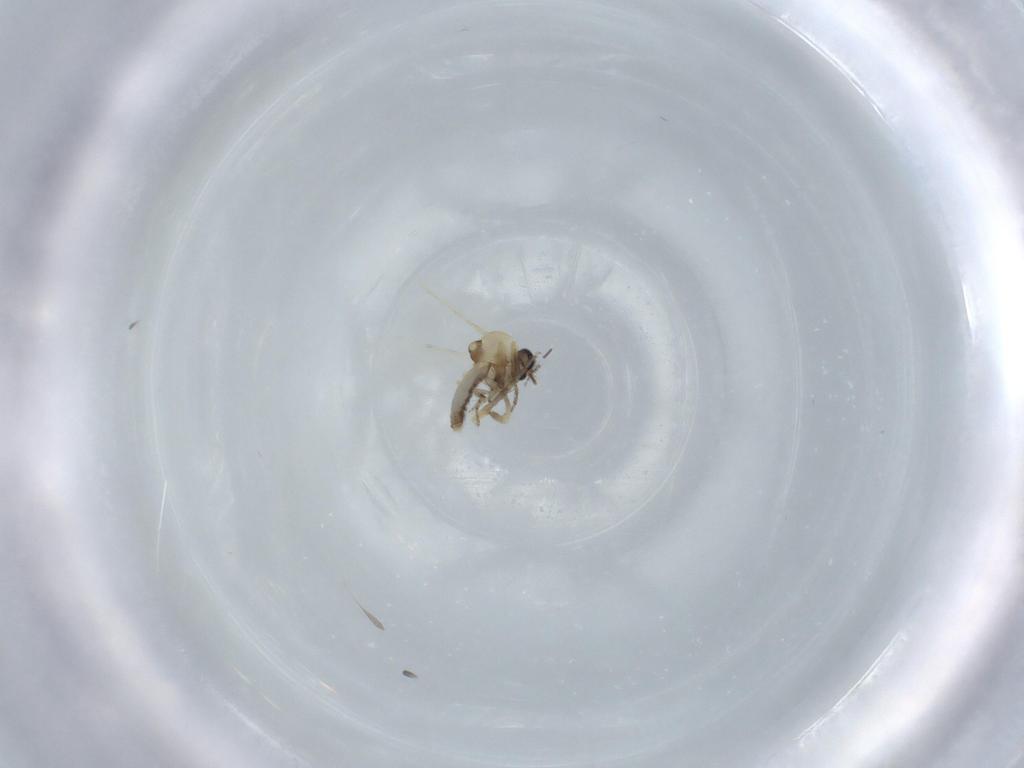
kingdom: Animalia
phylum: Arthropoda
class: Insecta
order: Diptera
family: Ceratopogonidae
